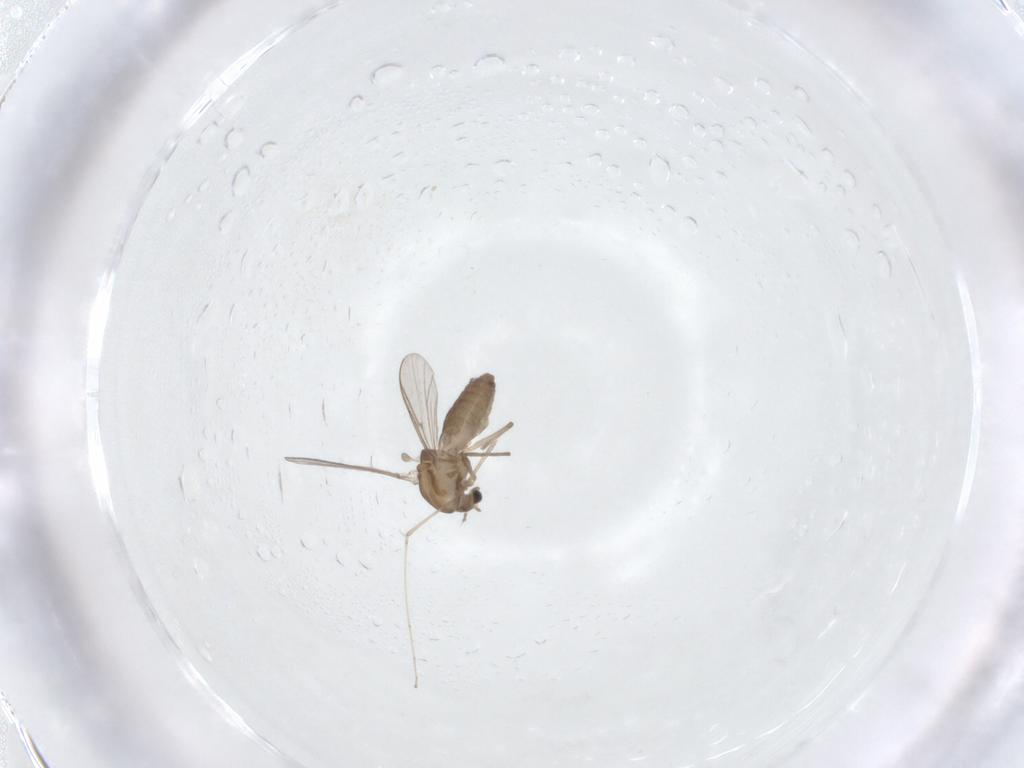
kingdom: Animalia
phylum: Arthropoda
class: Insecta
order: Diptera
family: Chironomidae
